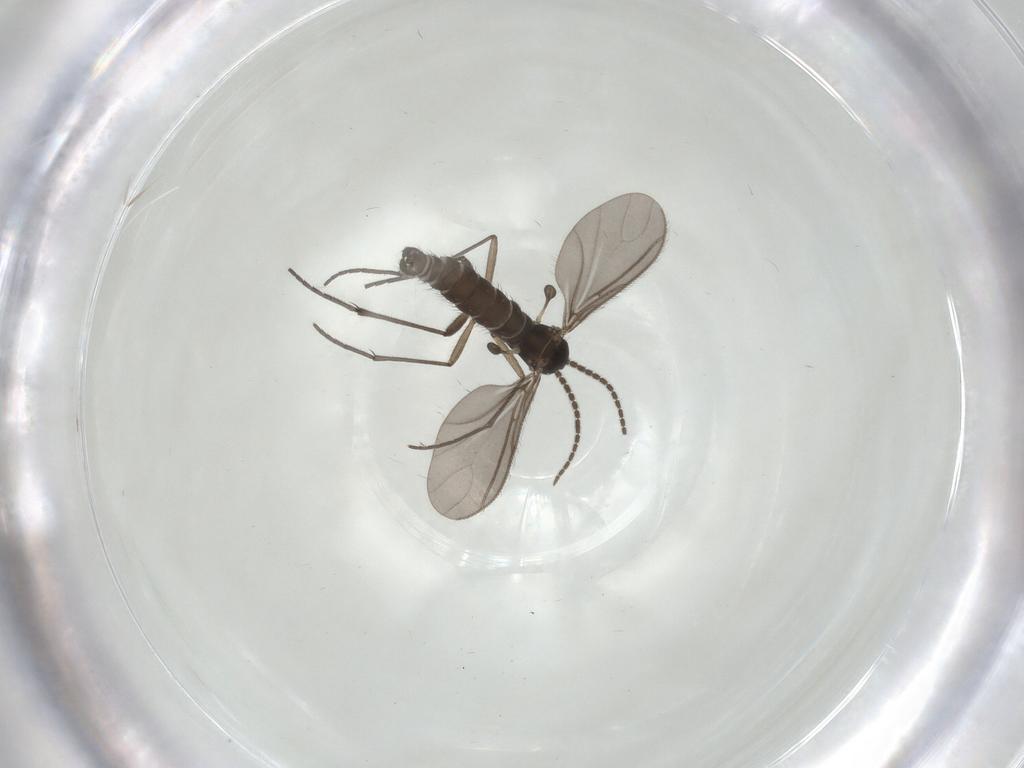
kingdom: Animalia
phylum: Arthropoda
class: Insecta
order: Diptera
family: Sciaridae
